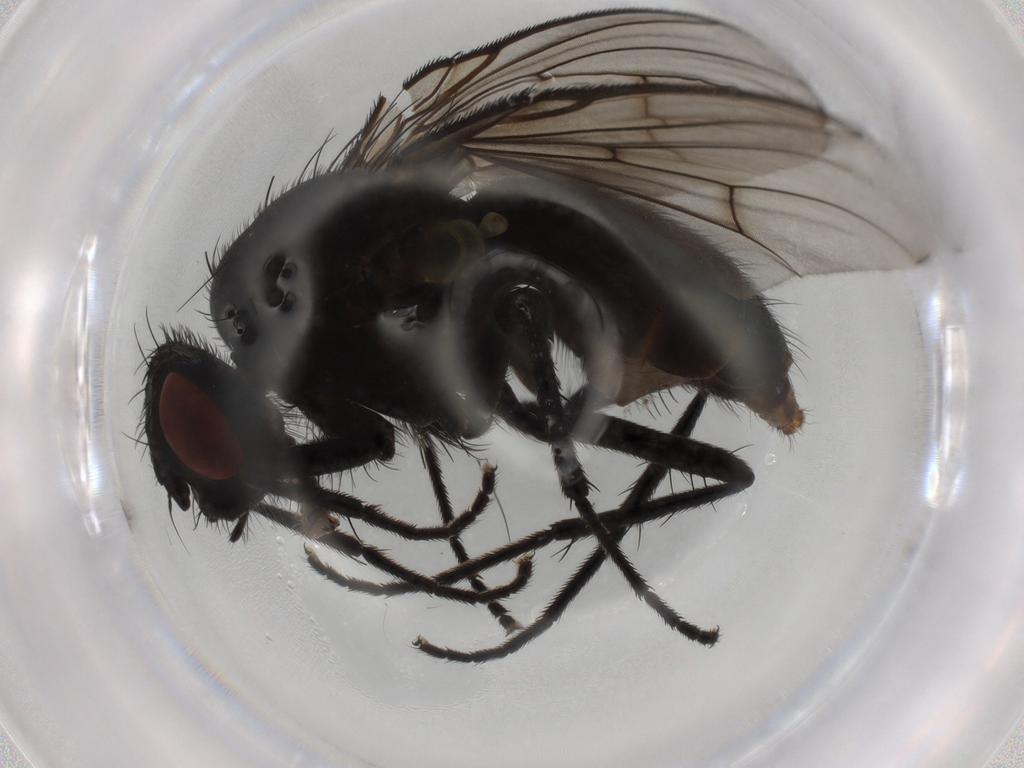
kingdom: Animalia
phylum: Arthropoda
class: Insecta
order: Diptera
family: Muscidae
